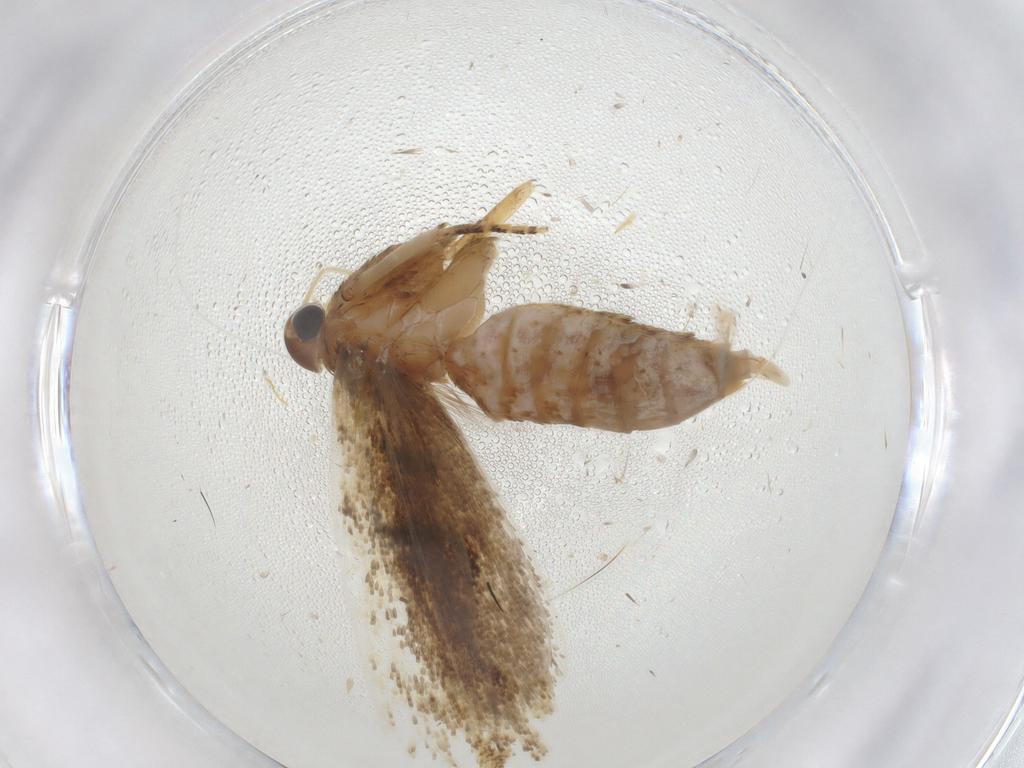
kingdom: Animalia
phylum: Arthropoda
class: Insecta
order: Lepidoptera
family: Gelechiidae
